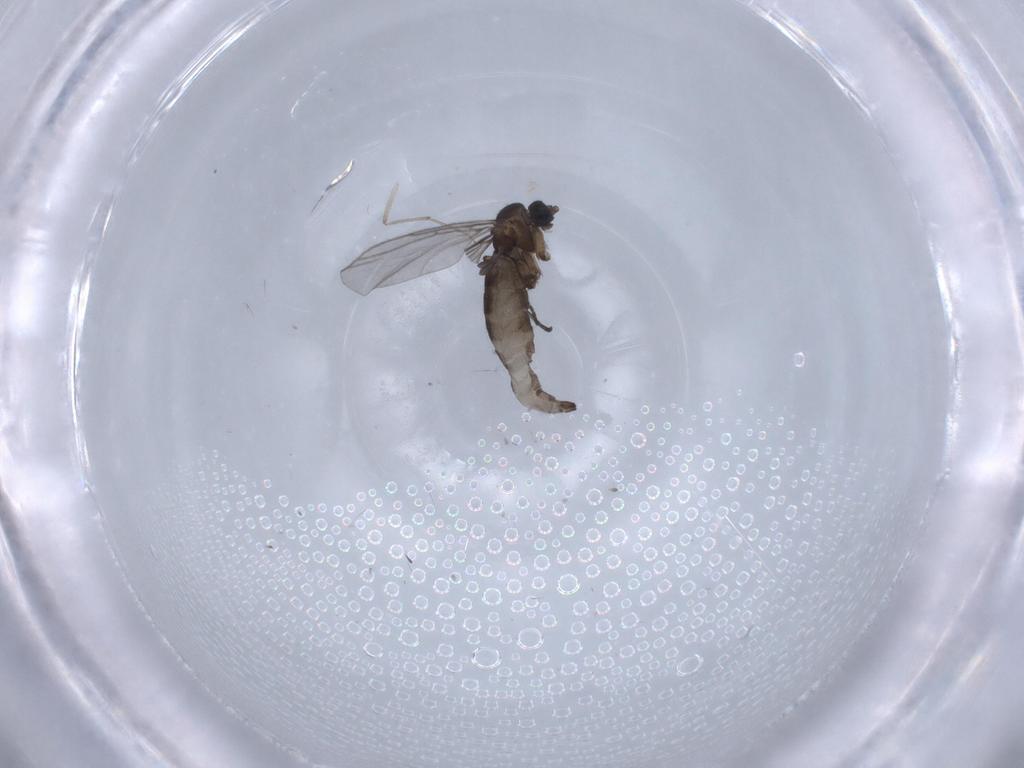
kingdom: Animalia
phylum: Arthropoda
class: Insecta
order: Diptera
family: Chironomidae
